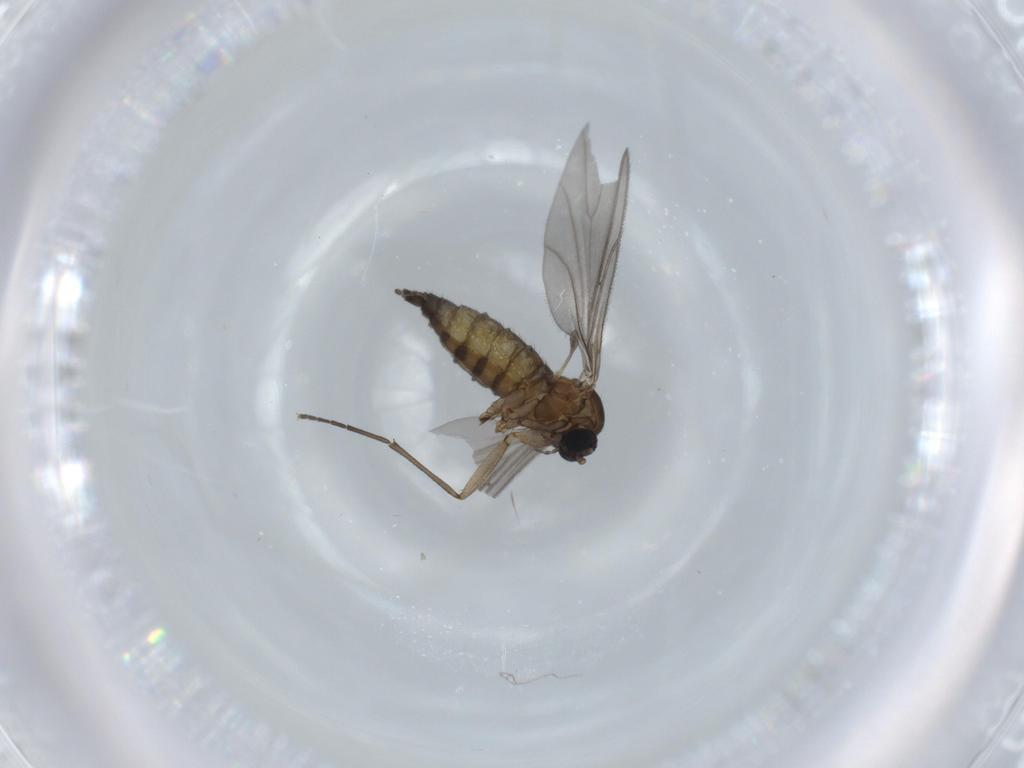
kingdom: Animalia
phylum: Arthropoda
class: Insecta
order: Diptera
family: Sciaridae
